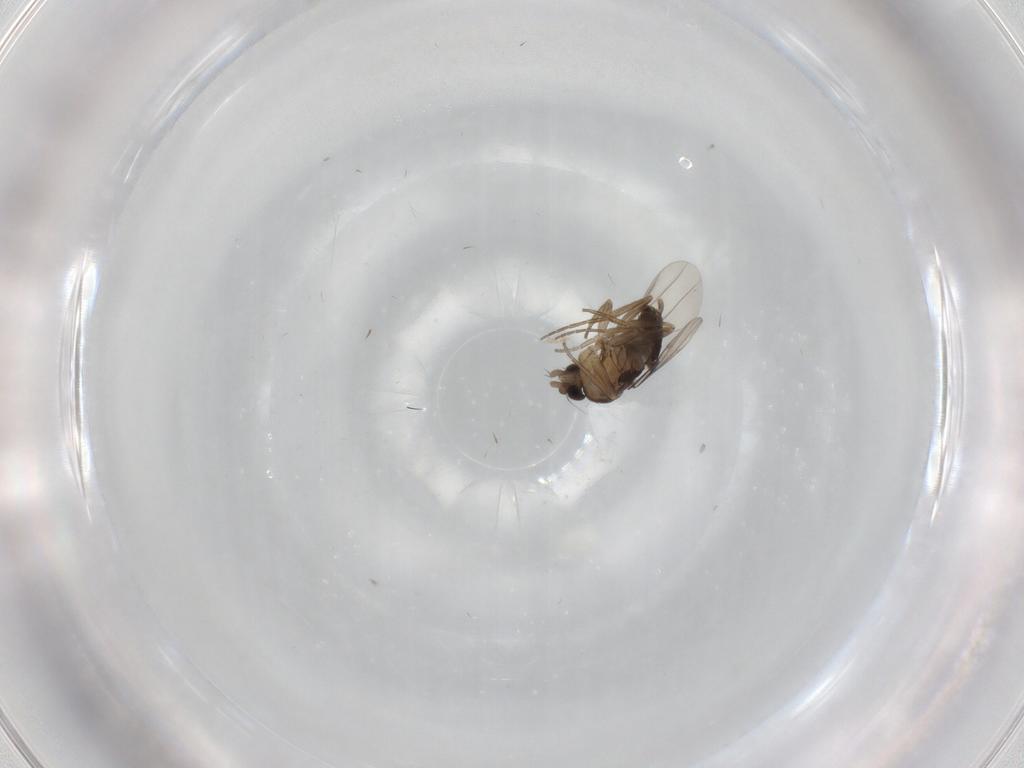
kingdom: Animalia
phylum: Arthropoda
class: Insecta
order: Diptera
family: Phoridae
